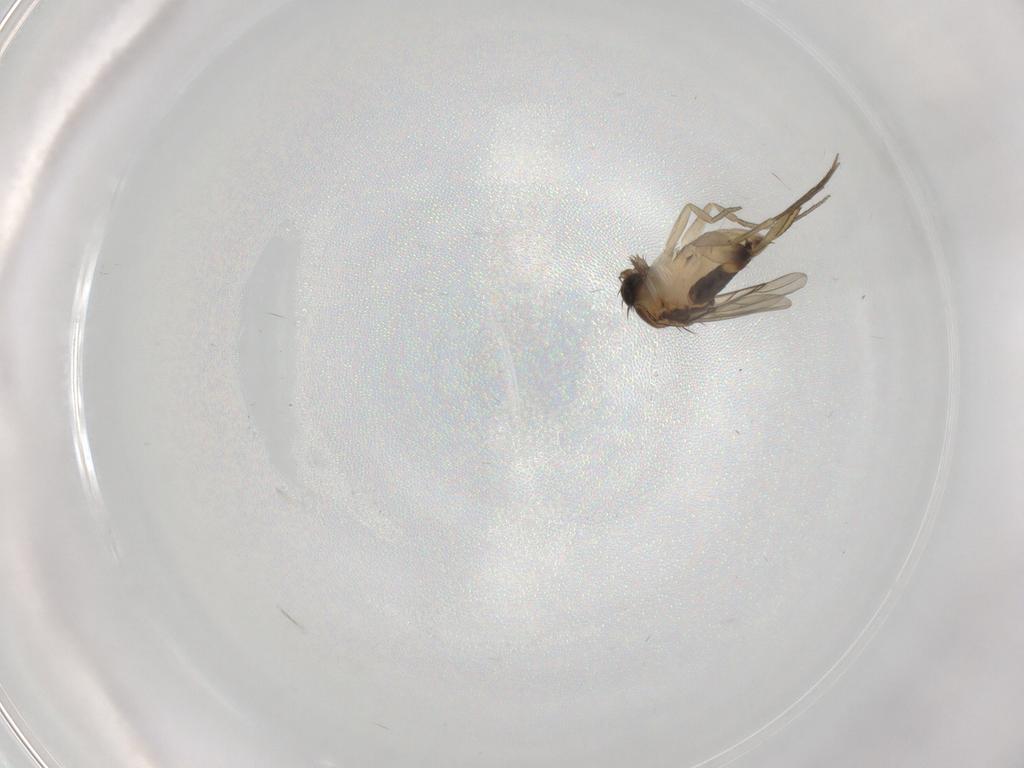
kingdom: Animalia
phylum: Arthropoda
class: Insecta
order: Diptera
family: Phoridae
